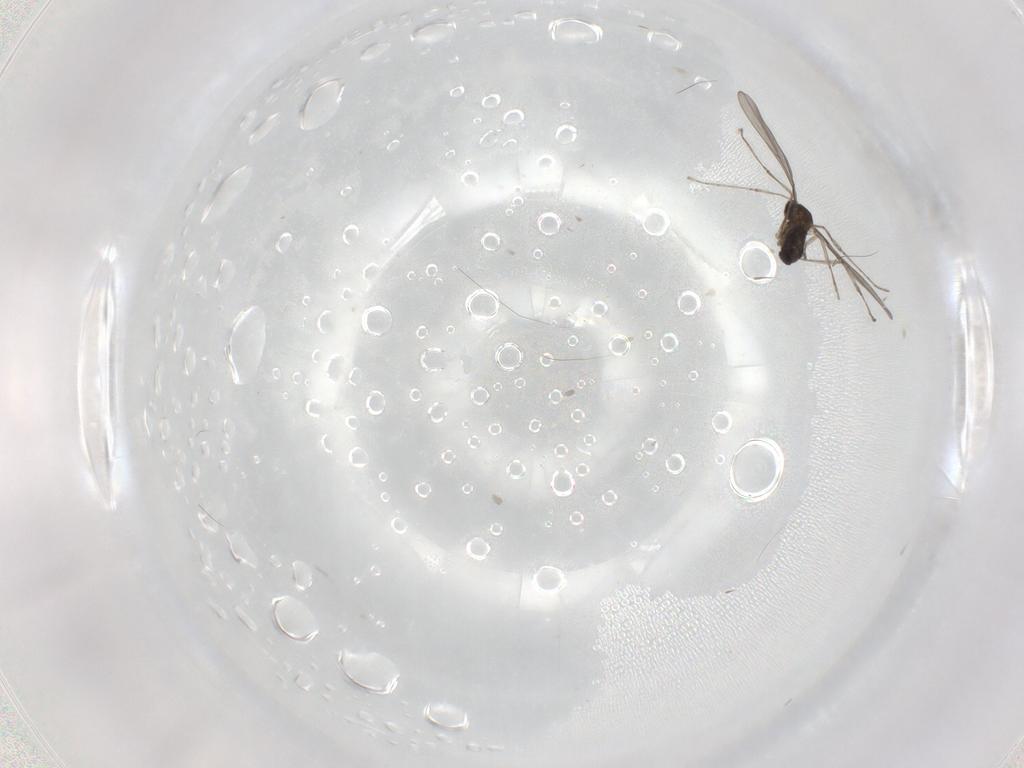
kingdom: Animalia
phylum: Arthropoda
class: Insecta
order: Diptera
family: Cecidomyiidae
